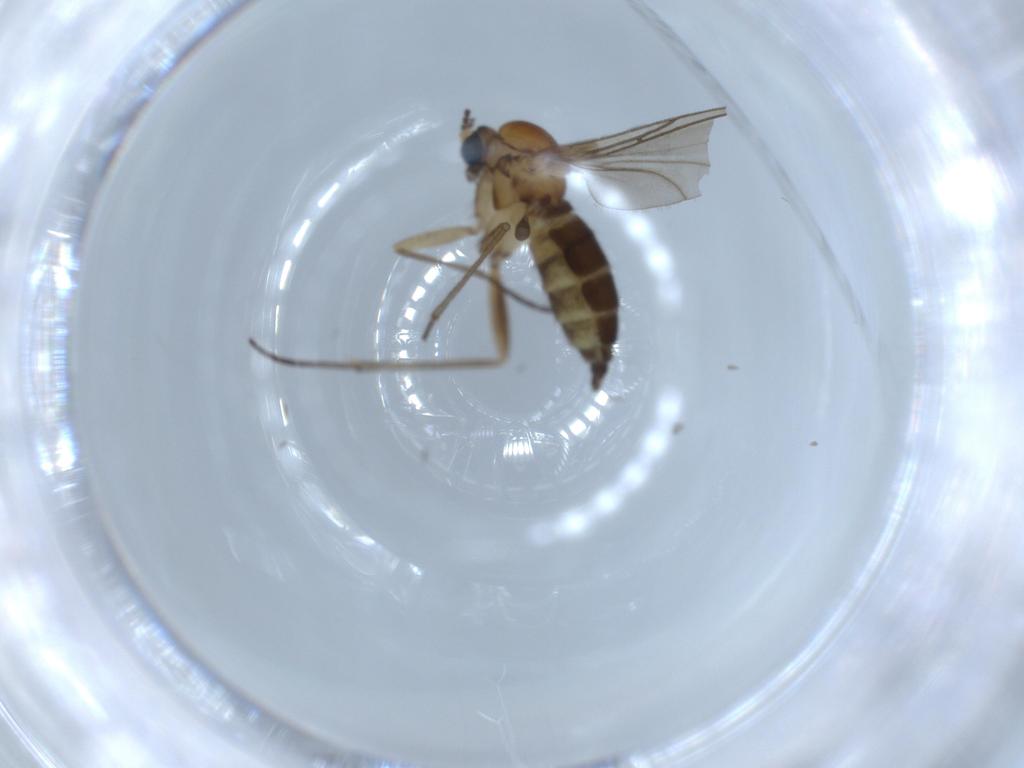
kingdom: Animalia
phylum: Arthropoda
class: Insecta
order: Diptera
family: Sciaridae
